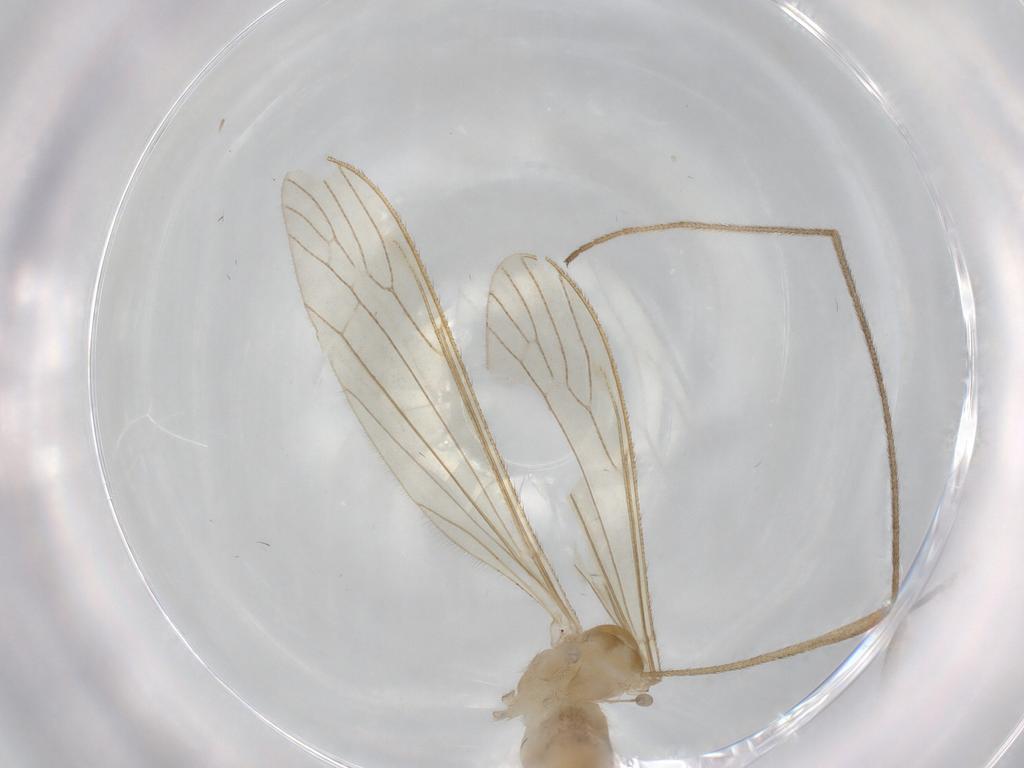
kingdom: Animalia
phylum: Arthropoda
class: Insecta
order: Diptera
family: Limoniidae
